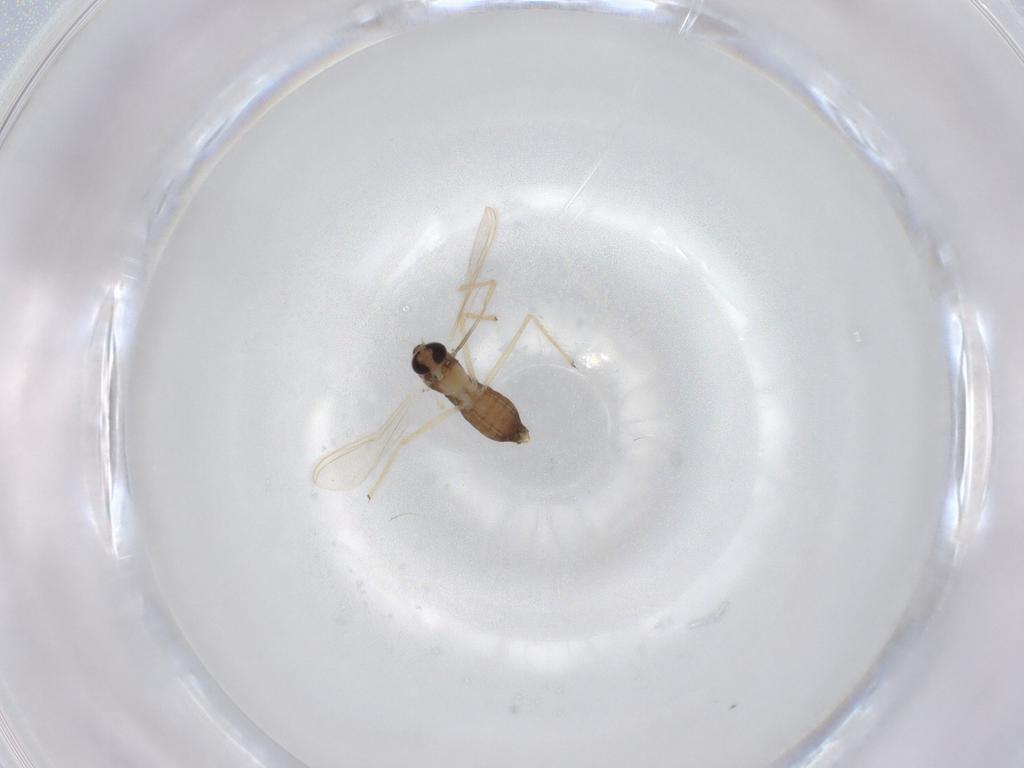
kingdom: Animalia
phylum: Arthropoda
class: Insecta
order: Diptera
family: Chironomidae
